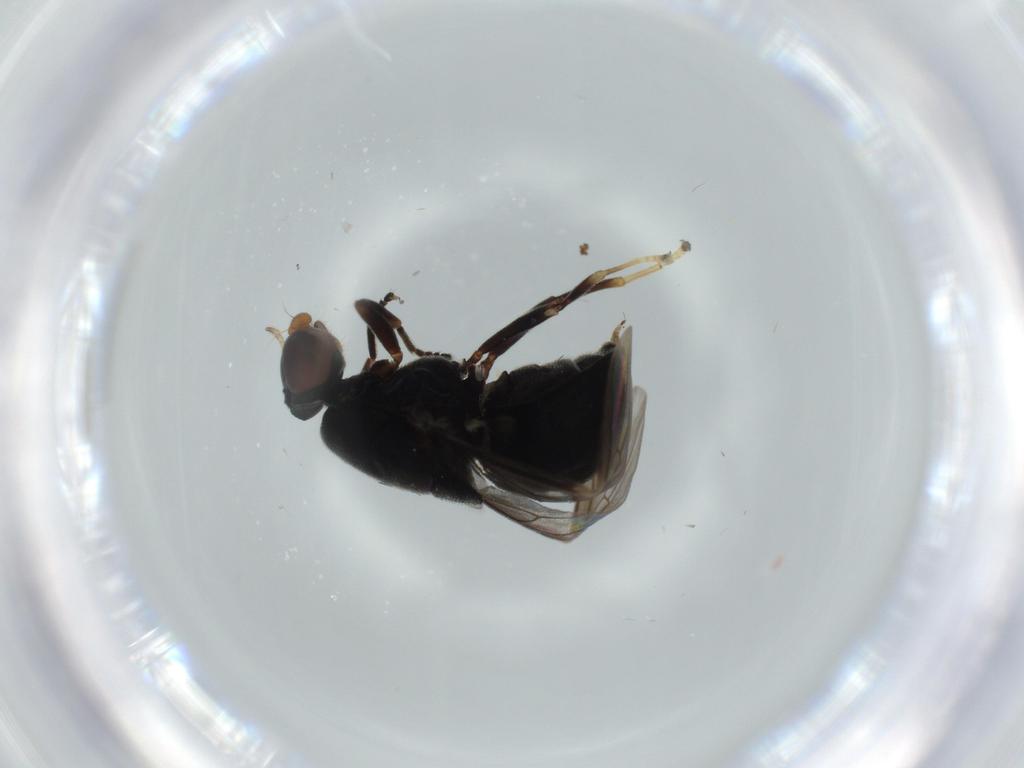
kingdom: Animalia
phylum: Arthropoda
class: Insecta
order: Diptera
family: Stratiomyidae
